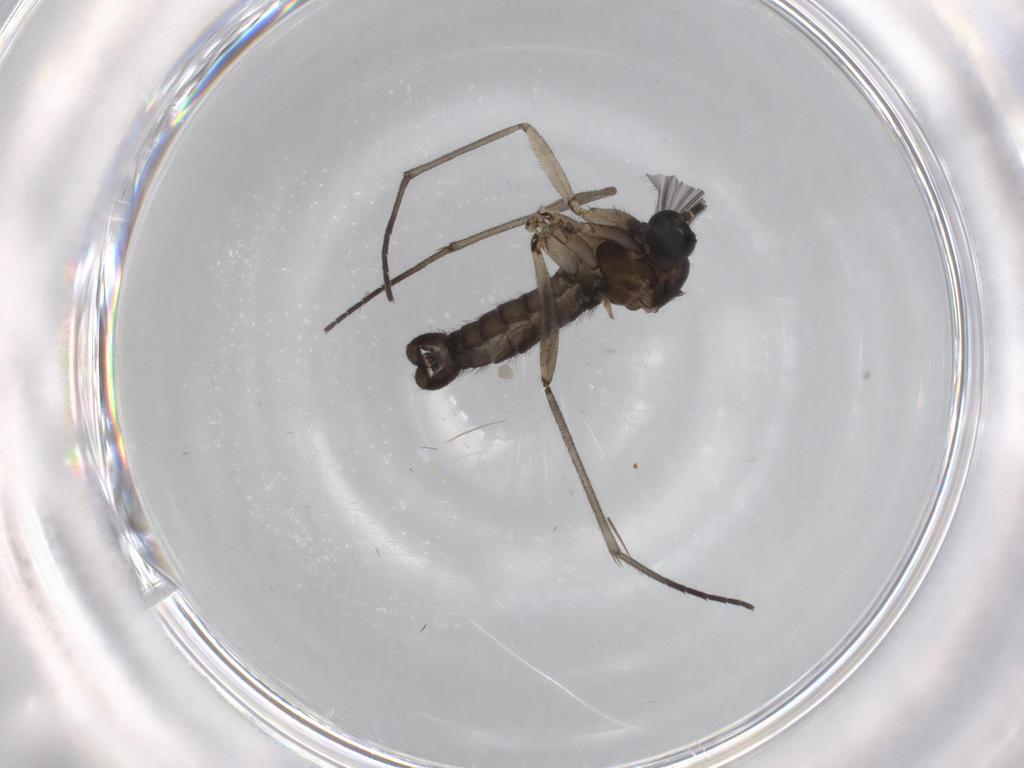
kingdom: Animalia
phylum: Arthropoda
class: Insecta
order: Diptera
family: Sciaridae
